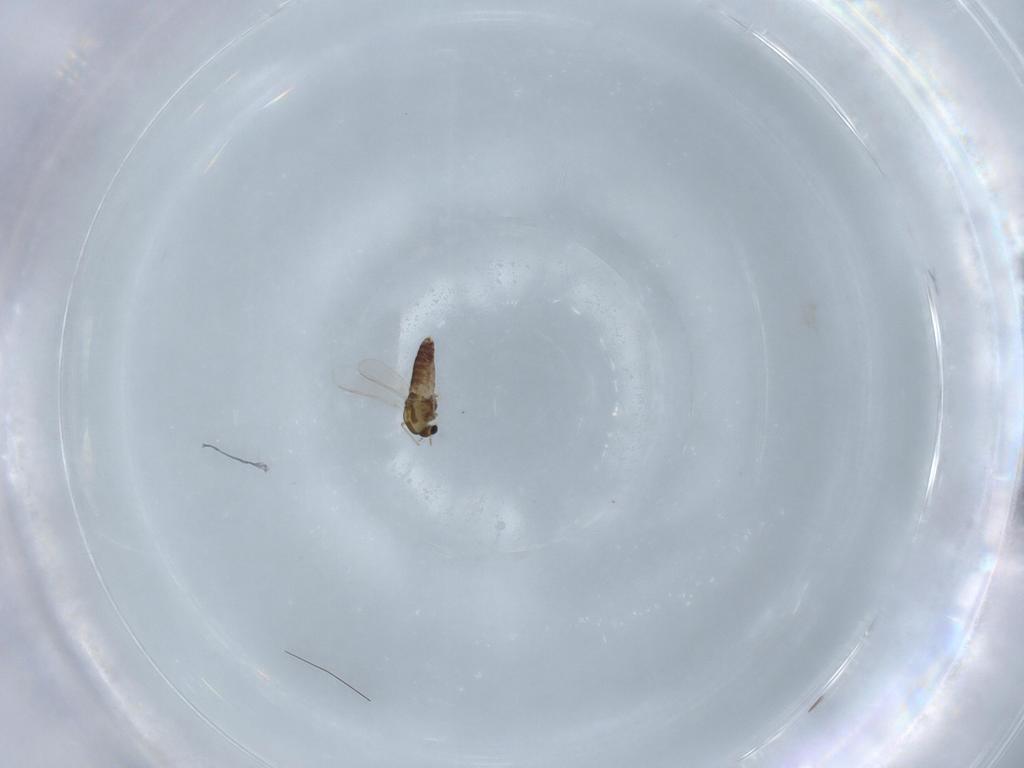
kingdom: Animalia
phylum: Arthropoda
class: Insecta
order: Diptera
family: Chironomidae
